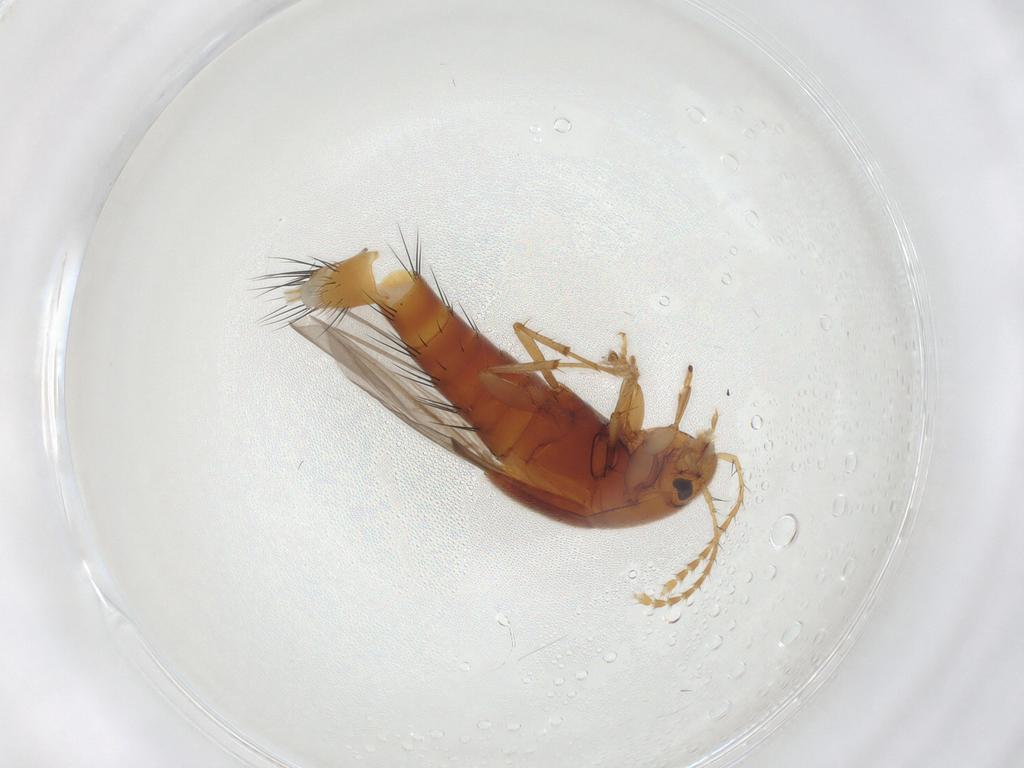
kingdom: Animalia
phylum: Arthropoda
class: Insecta
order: Coleoptera
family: Staphylinidae
